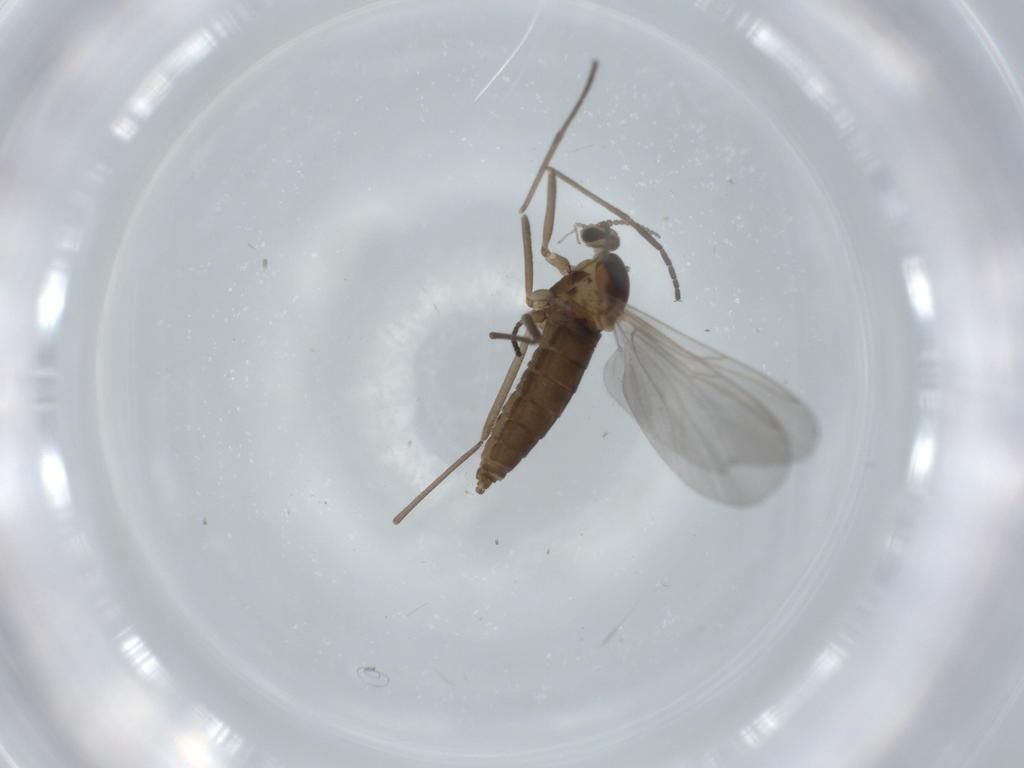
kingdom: Animalia
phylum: Arthropoda
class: Insecta
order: Diptera
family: Cecidomyiidae
